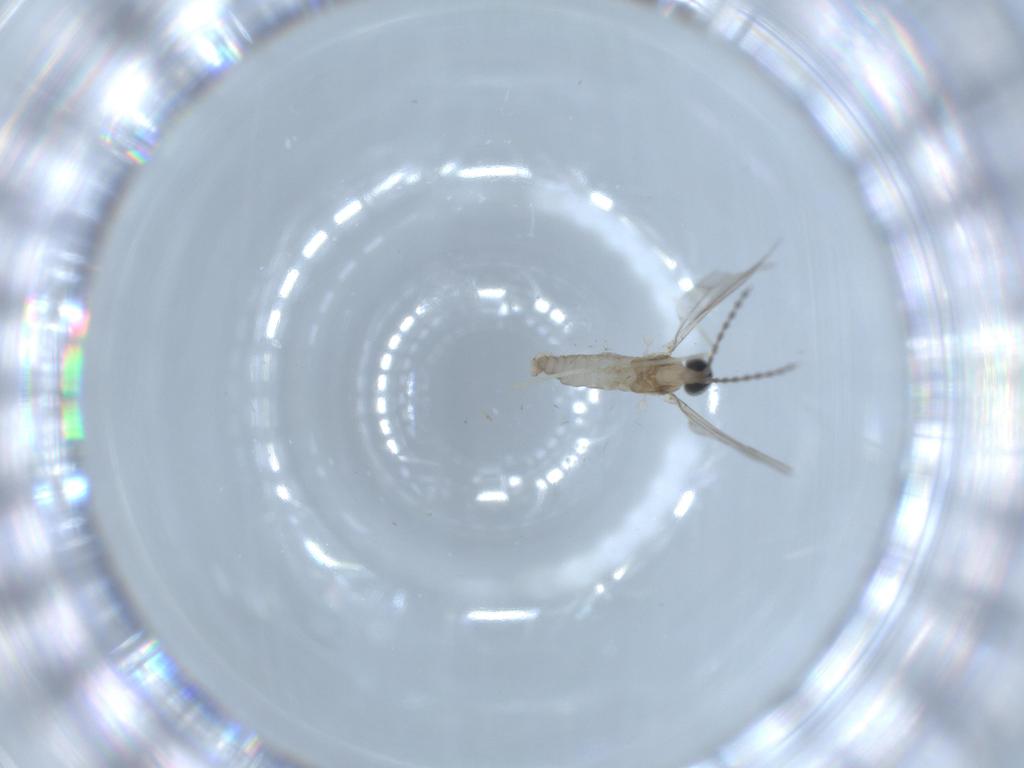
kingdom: Animalia
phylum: Arthropoda
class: Insecta
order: Diptera
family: Cecidomyiidae
